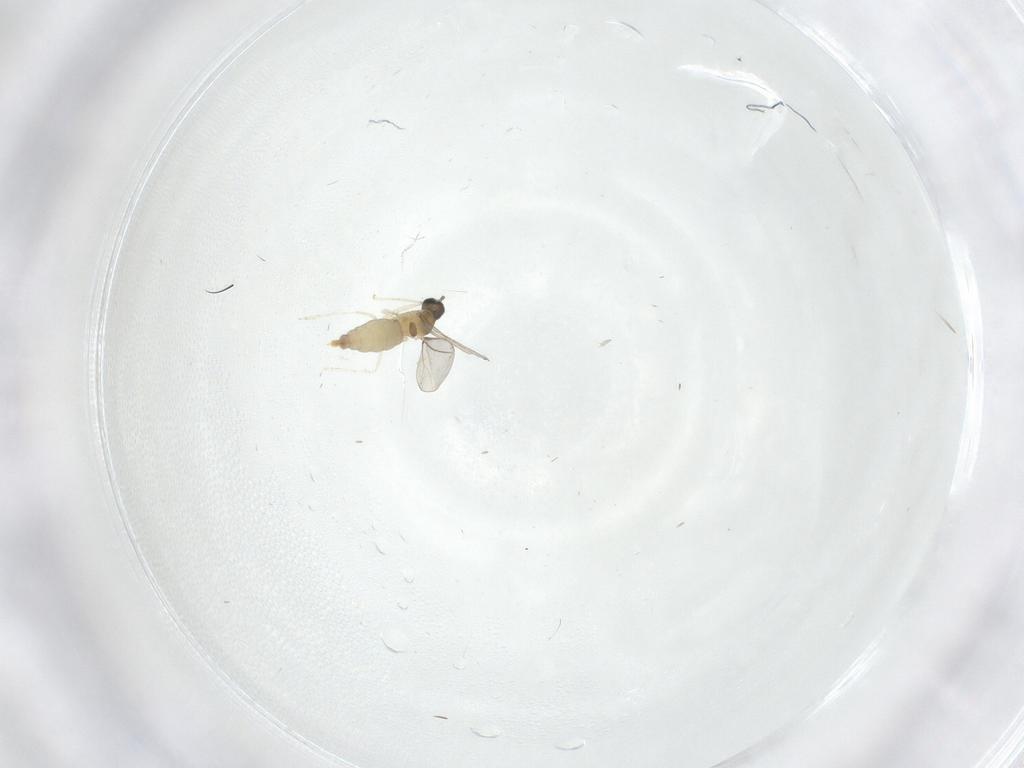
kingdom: Animalia
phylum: Arthropoda
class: Insecta
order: Diptera
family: Cecidomyiidae
